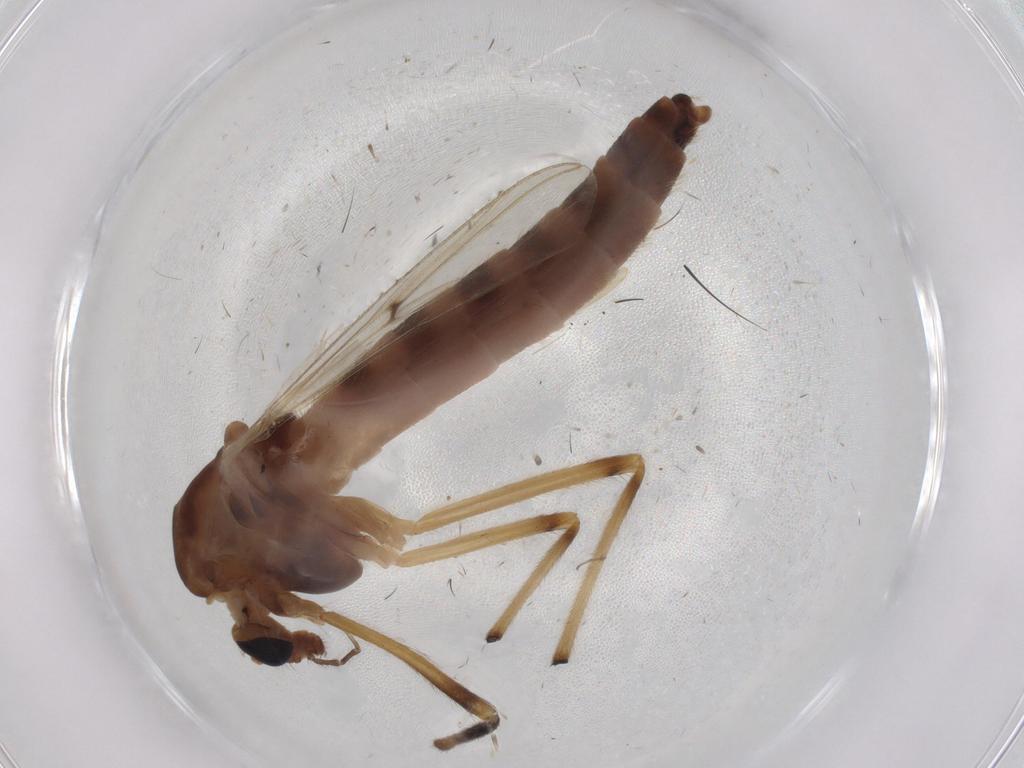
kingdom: Animalia
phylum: Arthropoda
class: Insecta
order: Diptera
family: Chironomidae
